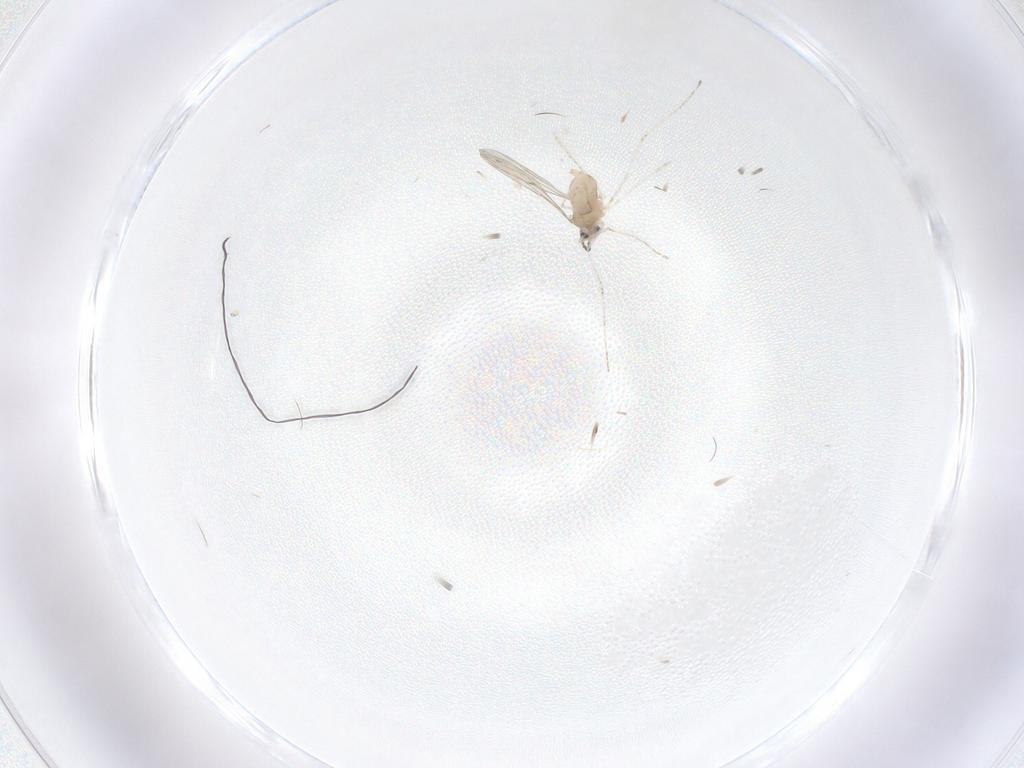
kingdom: Animalia
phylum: Arthropoda
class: Insecta
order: Diptera
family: Cecidomyiidae
